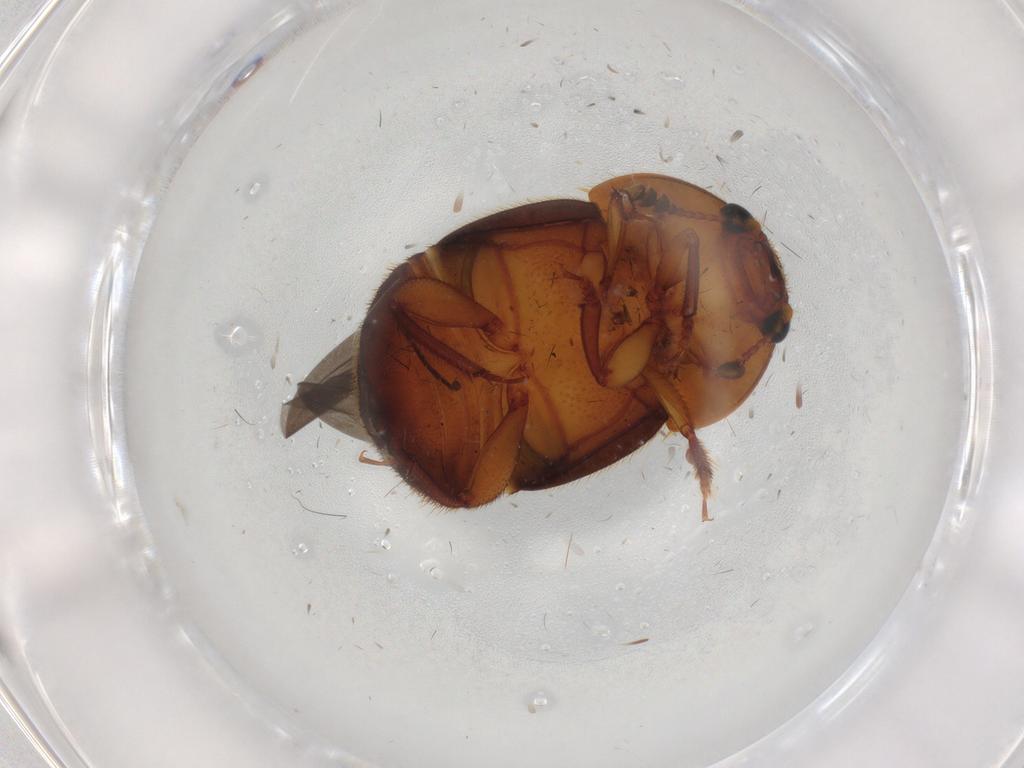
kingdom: Animalia
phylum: Arthropoda
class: Insecta
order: Coleoptera
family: Nitidulidae
